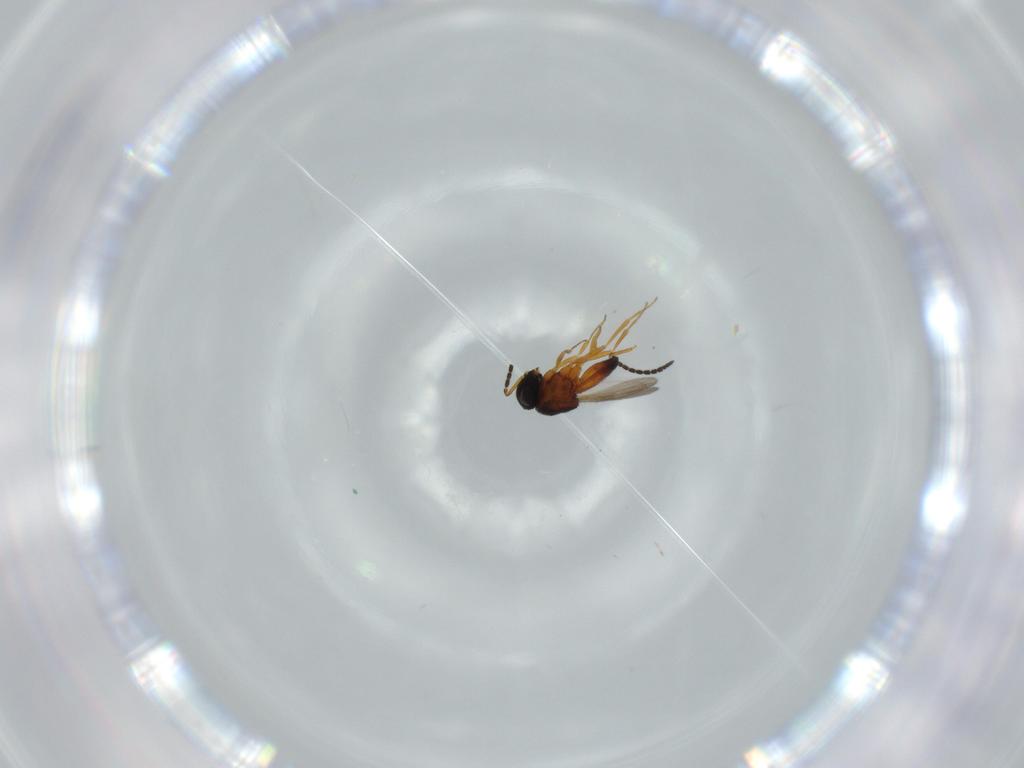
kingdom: Animalia
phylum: Arthropoda
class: Insecta
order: Hymenoptera
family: Scelionidae
